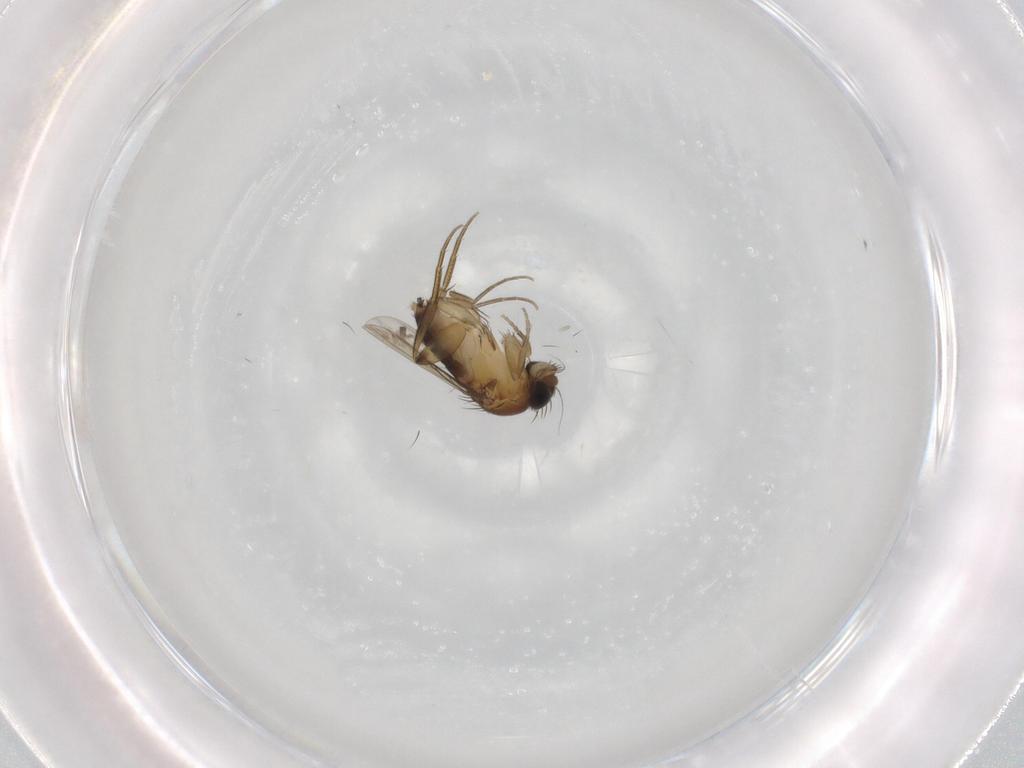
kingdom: Animalia
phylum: Arthropoda
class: Insecta
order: Diptera
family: Phoridae
